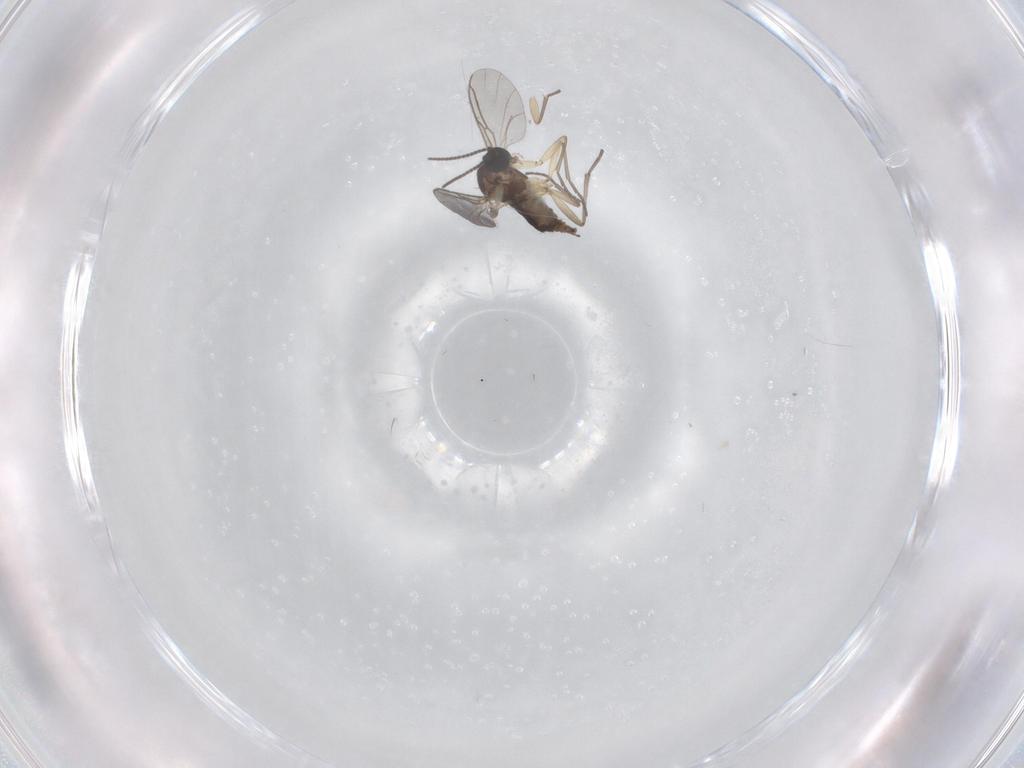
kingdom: Animalia
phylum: Arthropoda
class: Insecta
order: Diptera
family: Sciaridae
